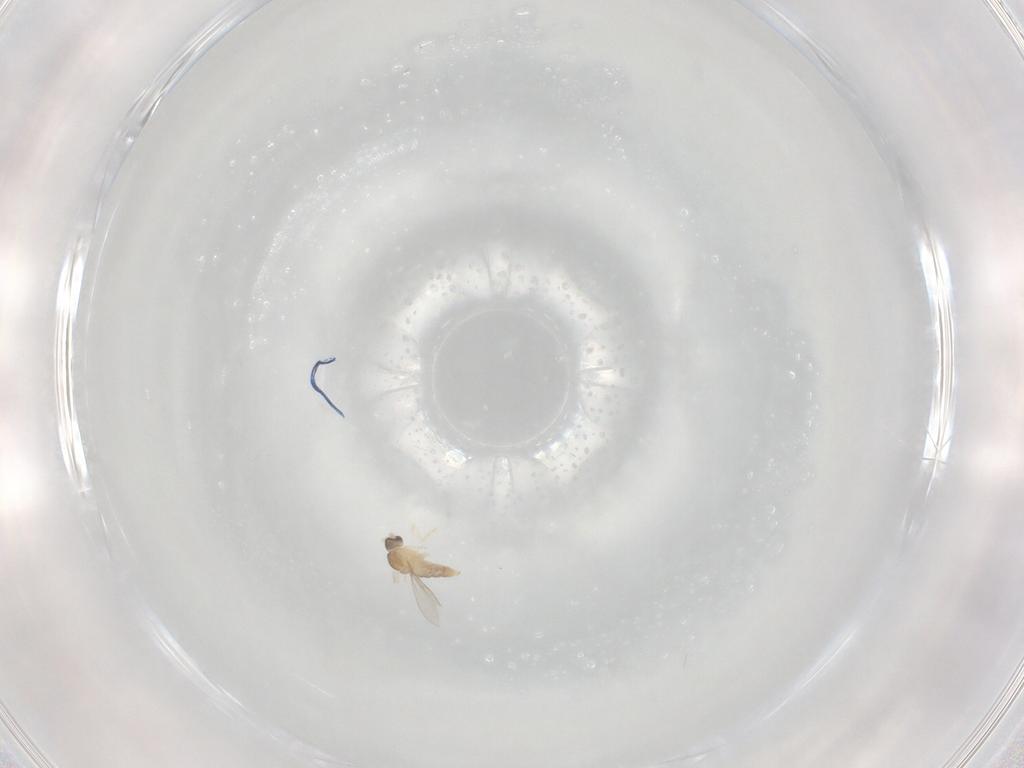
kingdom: Animalia
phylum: Arthropoda
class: Insecta
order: Diptera
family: Cecidomyiidae
